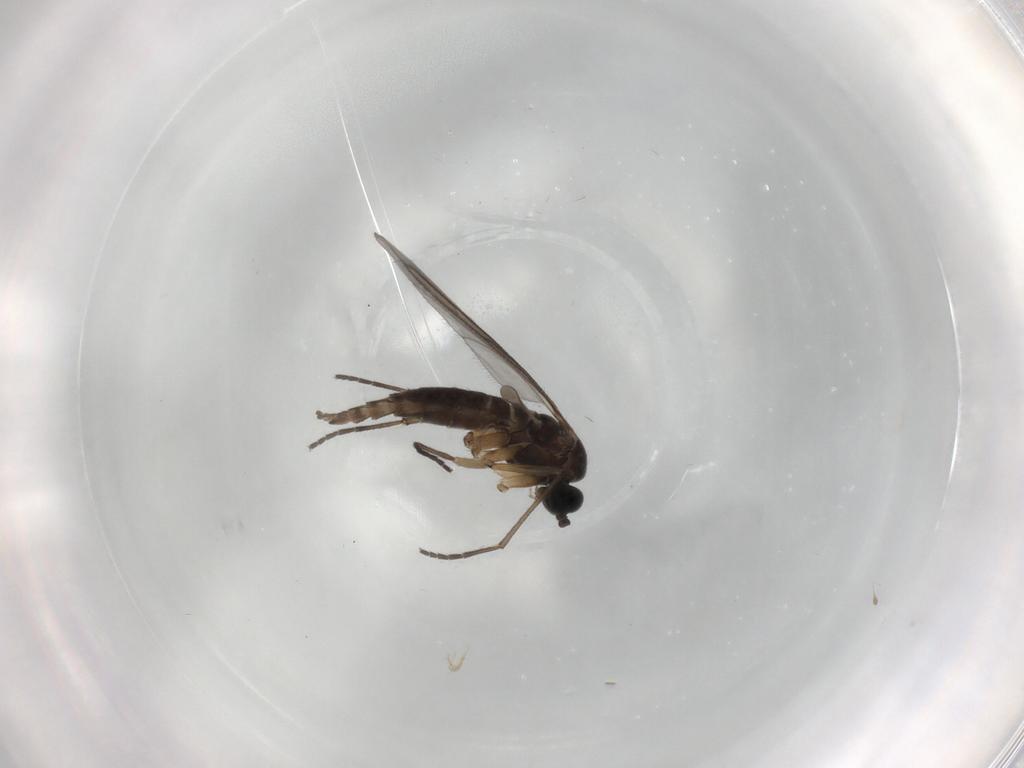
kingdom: Animalia
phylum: Arthropoda
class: Insecta
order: Diptera
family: Sciaridae
